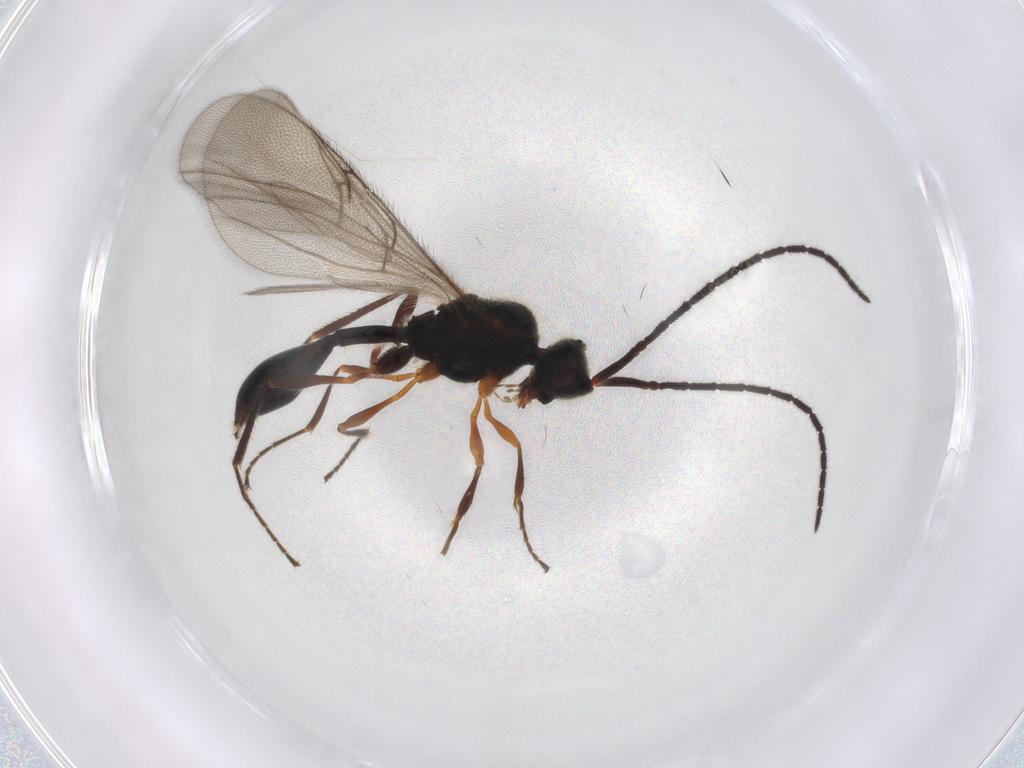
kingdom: Animalia
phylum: Arthropoda
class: Insecta
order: Hymenoptera
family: Diapriidae
